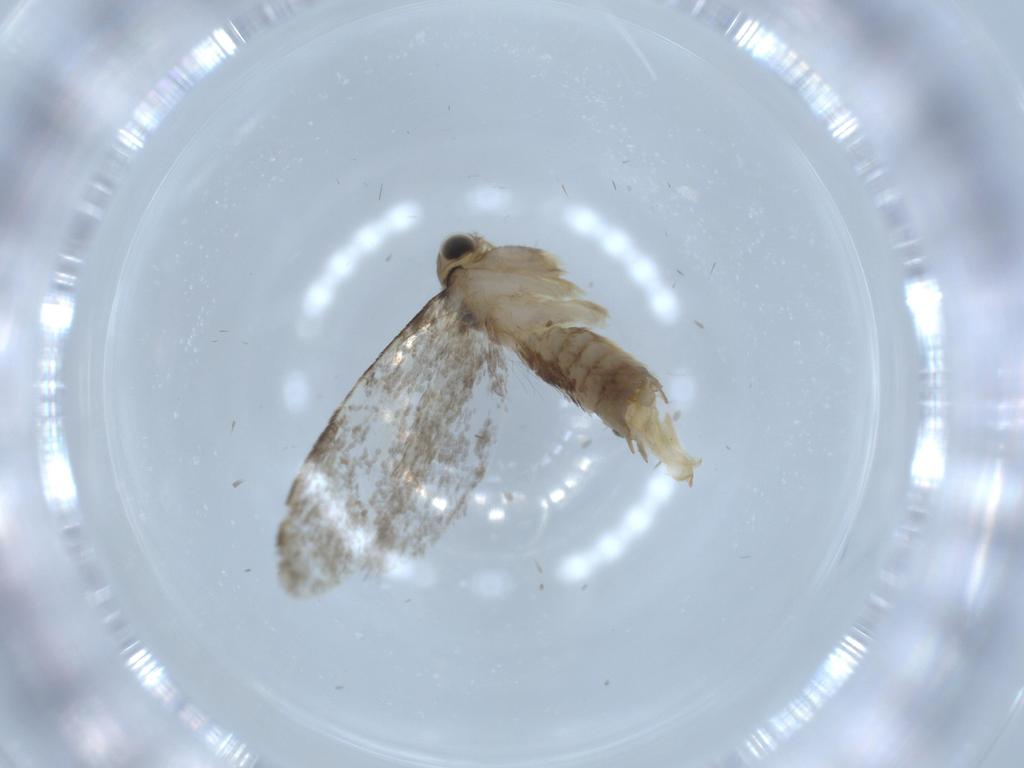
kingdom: Animalia
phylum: Arthropoda
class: Insecta
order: Lepidoptera
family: Tineidae
